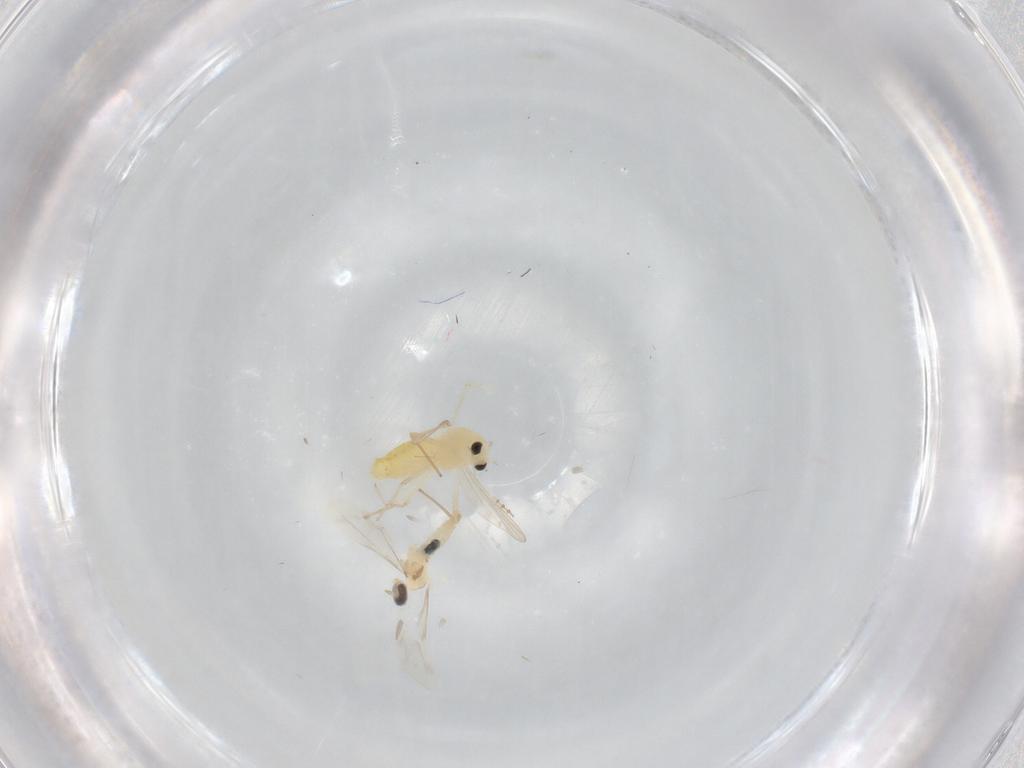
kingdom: Animalia
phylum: Arthropoda
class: Insecta
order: Diptera
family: Cecidomyiidae
